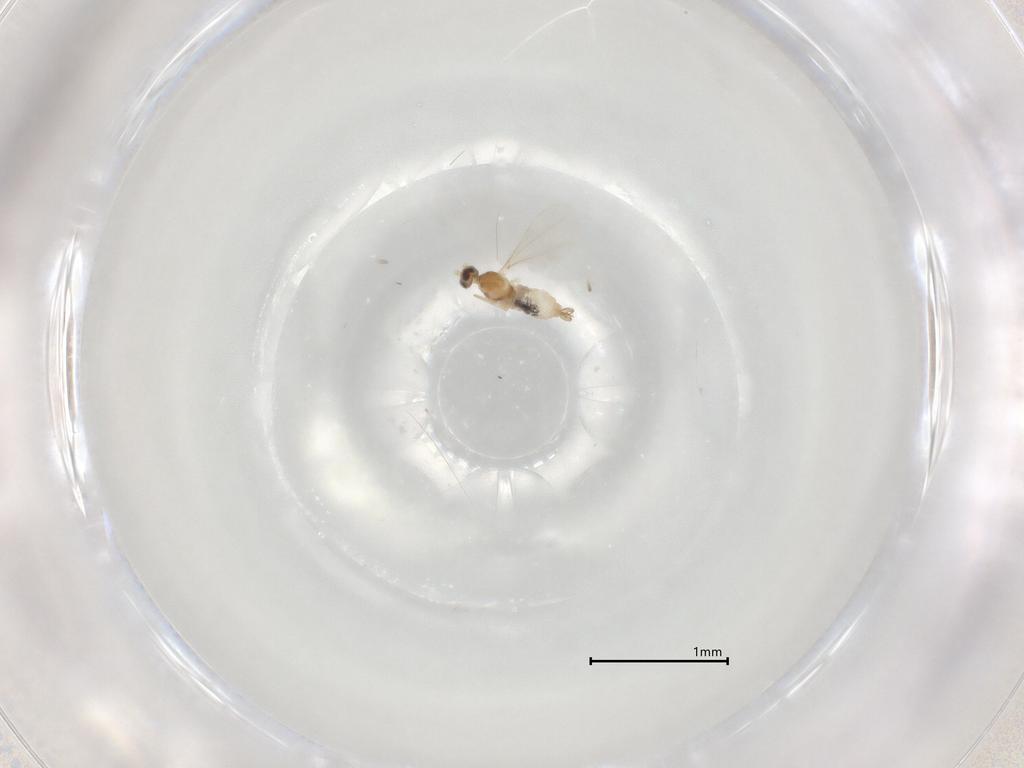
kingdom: Animalia
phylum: Arthropoda
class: Insecta
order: Diptera
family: Cecidomyiidae
